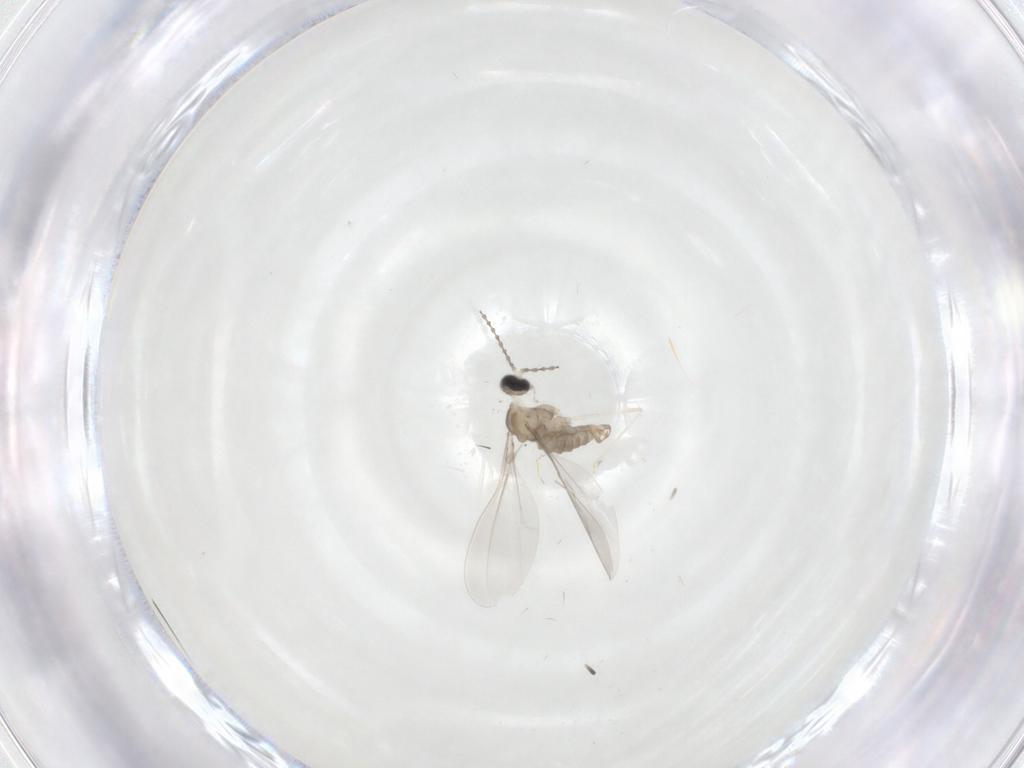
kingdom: Animalia
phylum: Arthropoda
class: Insecta
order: Diptera
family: Cecidomyiidae
